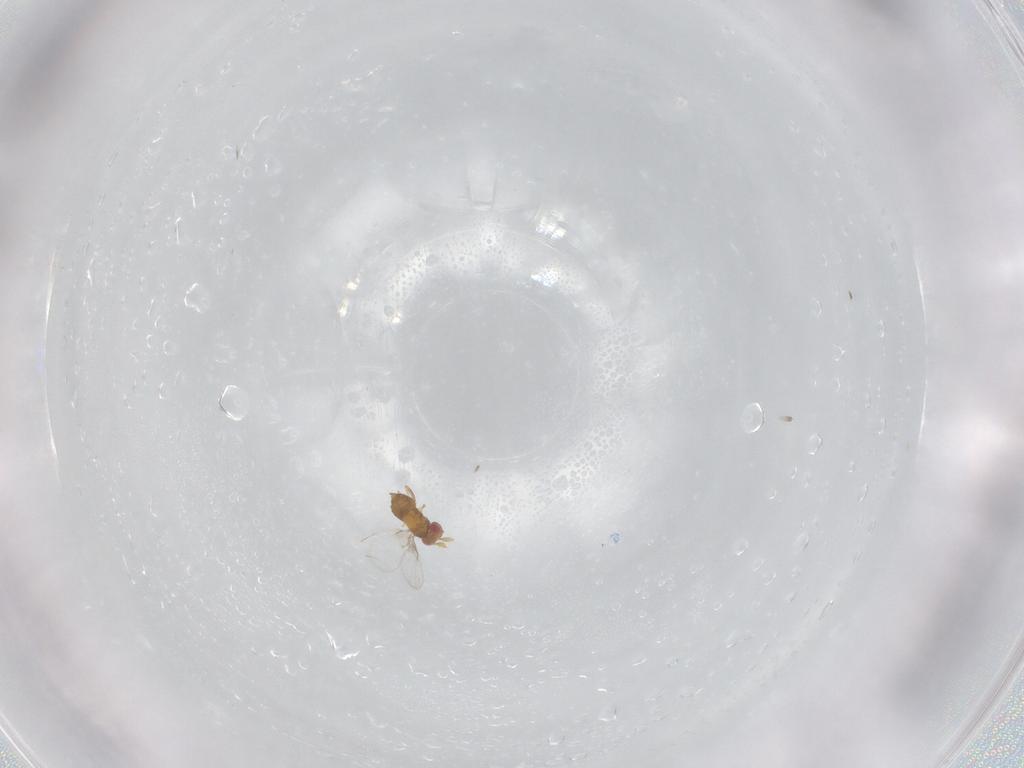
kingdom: Animalia
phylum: Arthropoda
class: Insecta
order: Hymenoptera
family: Trichogrammatidae
